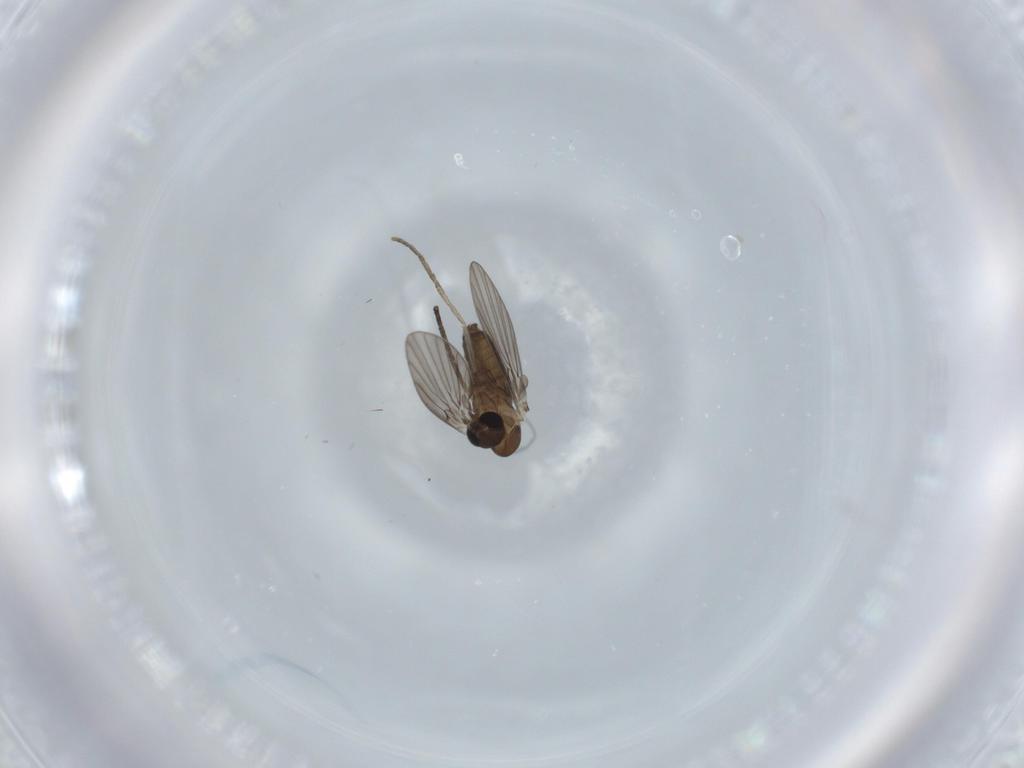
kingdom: Animalia
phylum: Arthropoda
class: Insecta
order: Diptera
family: Psychodidae
